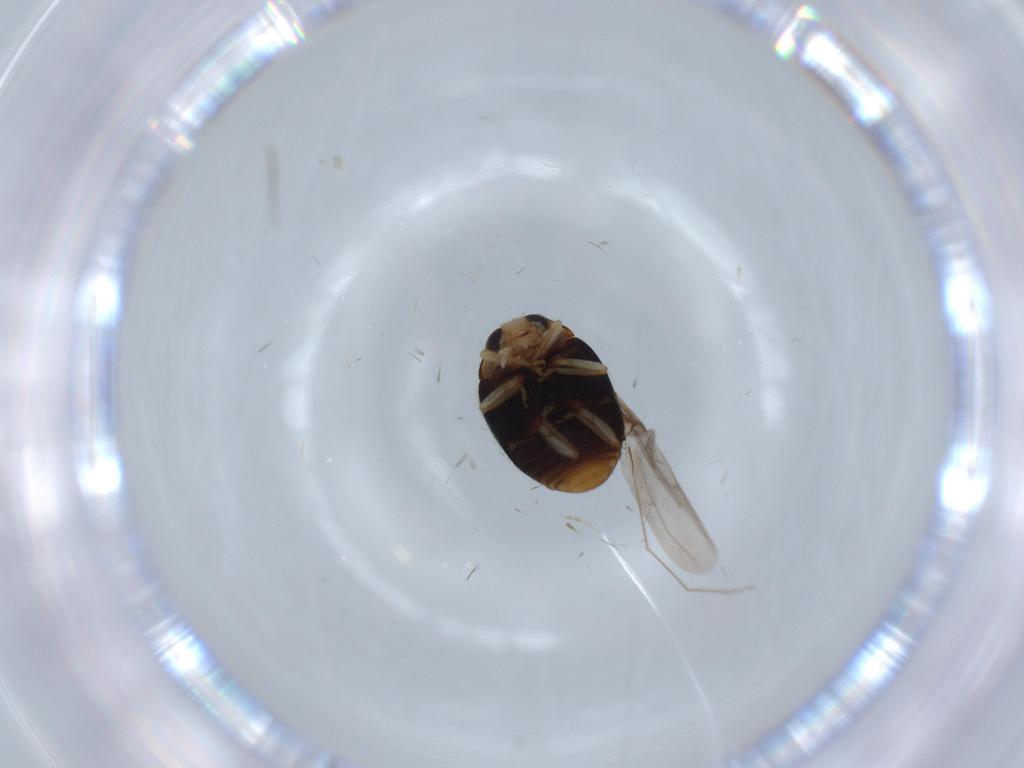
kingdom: Animalia
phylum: Arthropoda
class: Insecta
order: Coleoptera
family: Coccinellidae
